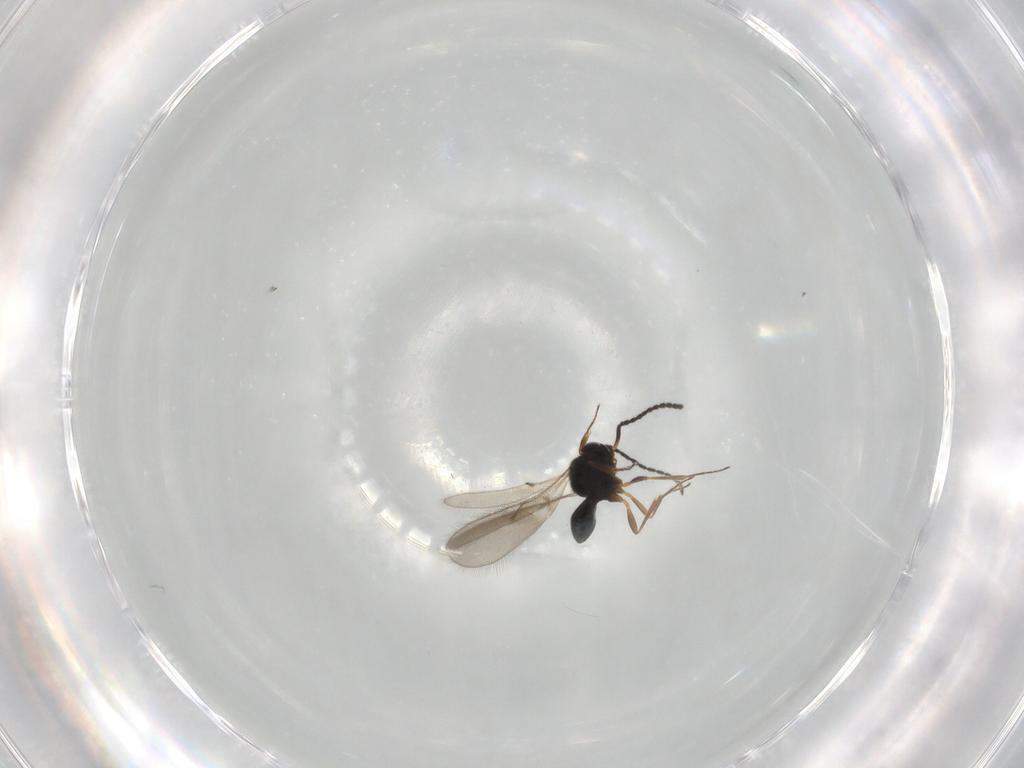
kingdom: Animalia
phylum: Arthropoda
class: Insecta
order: Hymenoptera
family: Scelionidae
